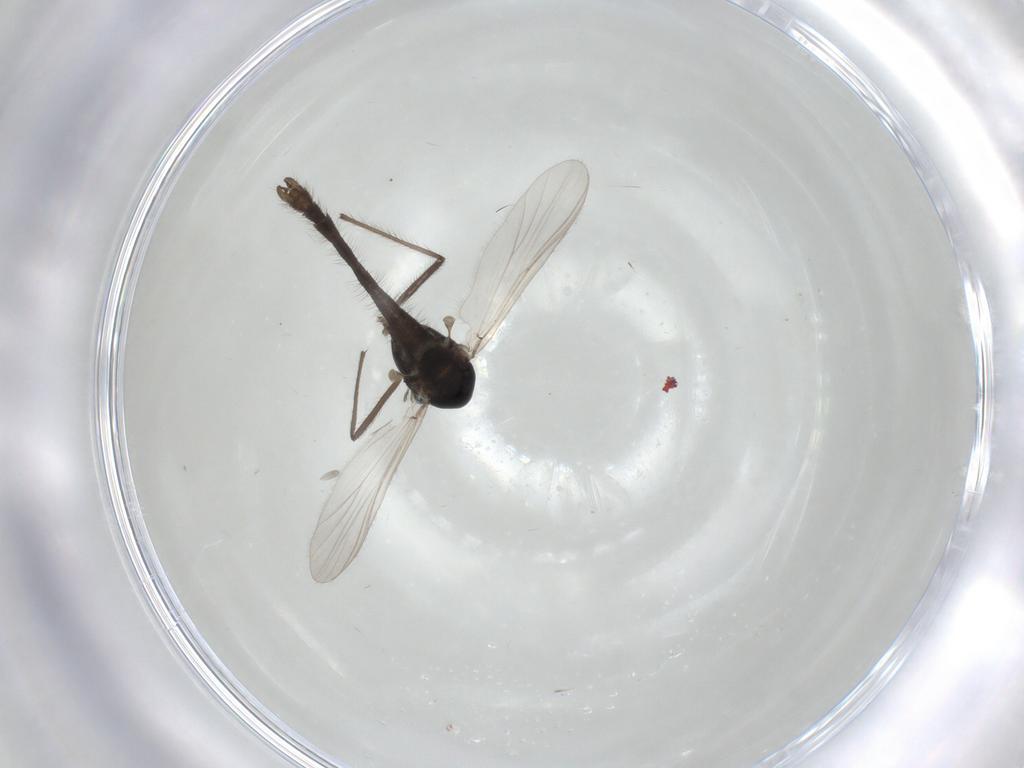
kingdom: Animalia
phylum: Arthropoda
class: Insecta
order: Diptera
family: Chironomidae
